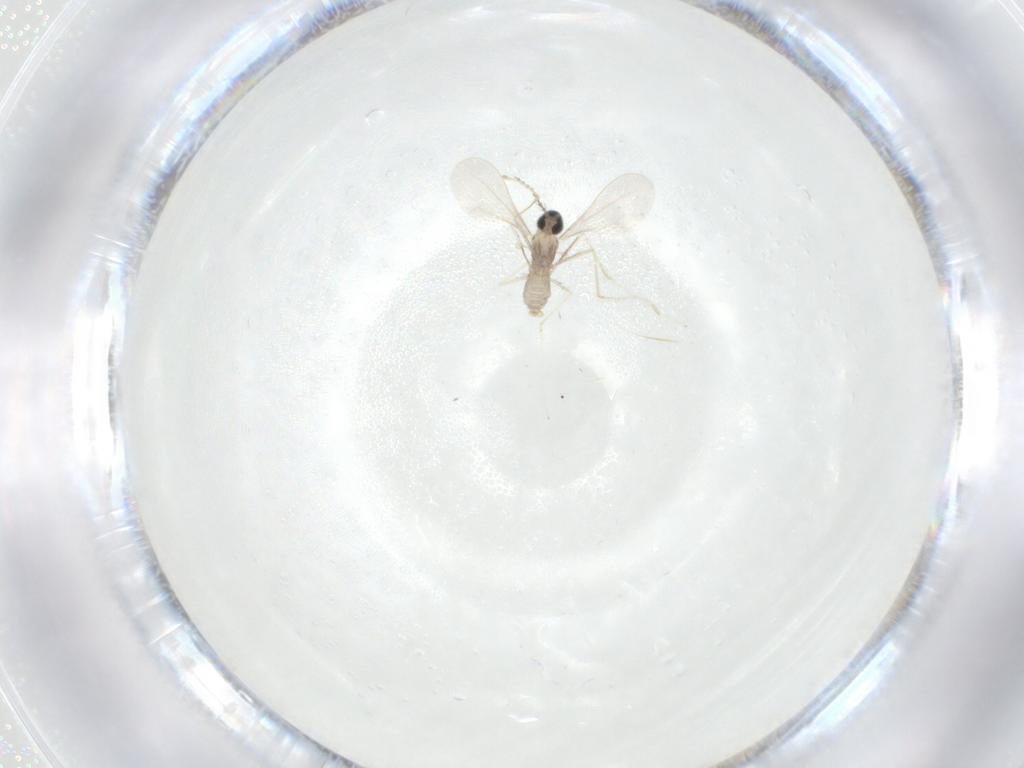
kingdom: Animalia
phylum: Arthropoda
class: Insecta
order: Diptera
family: Cecidomyiidae
